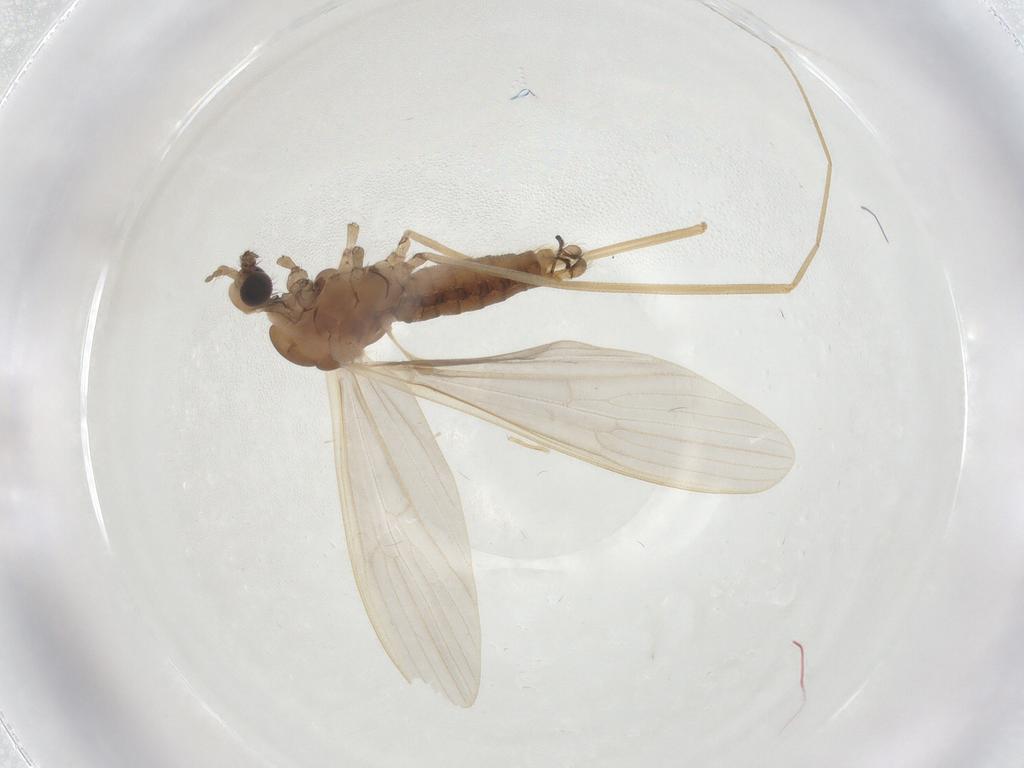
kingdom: Animalia
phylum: Arthropoda
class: Insecta
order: Diptera
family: Limoniidae
